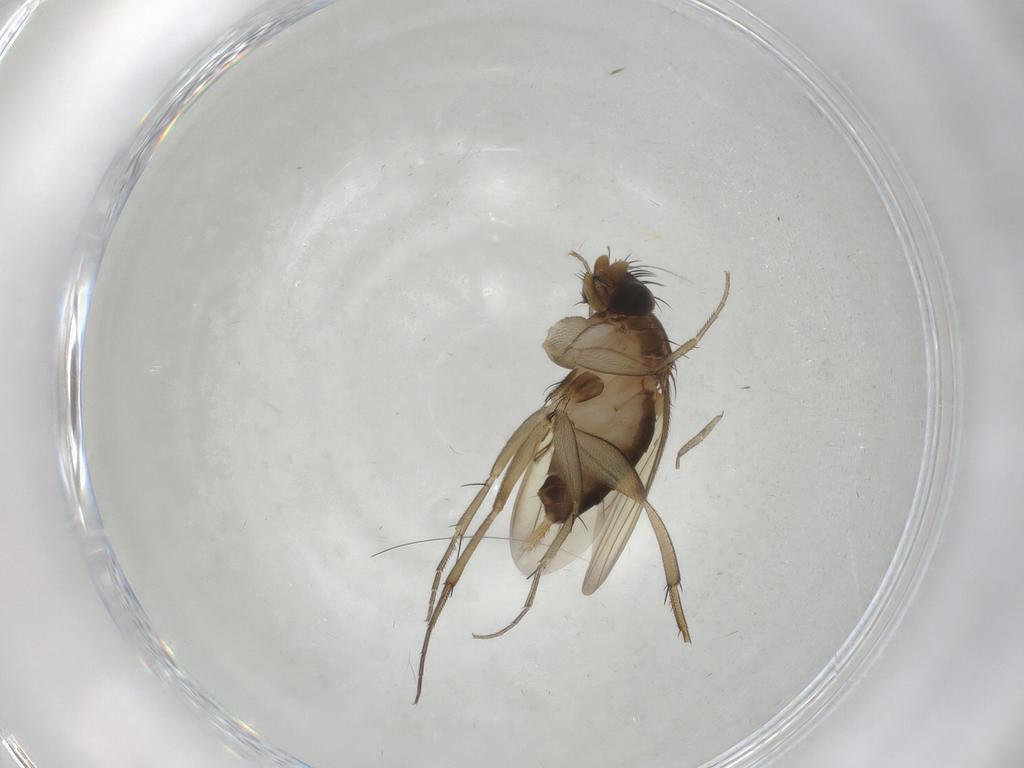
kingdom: Animalia
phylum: Arthropoda
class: Insecta
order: Diptera
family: Phoridae
